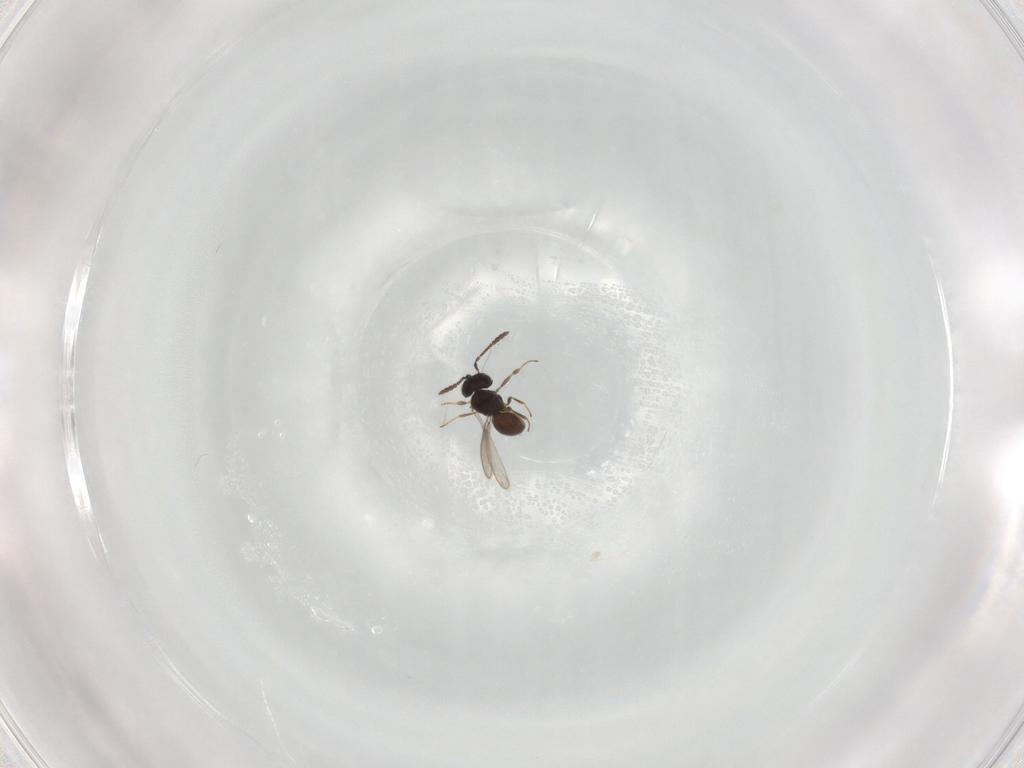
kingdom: Animalia
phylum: Arthropoda
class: Insecta
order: Hymenoptera
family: Scelionidae
